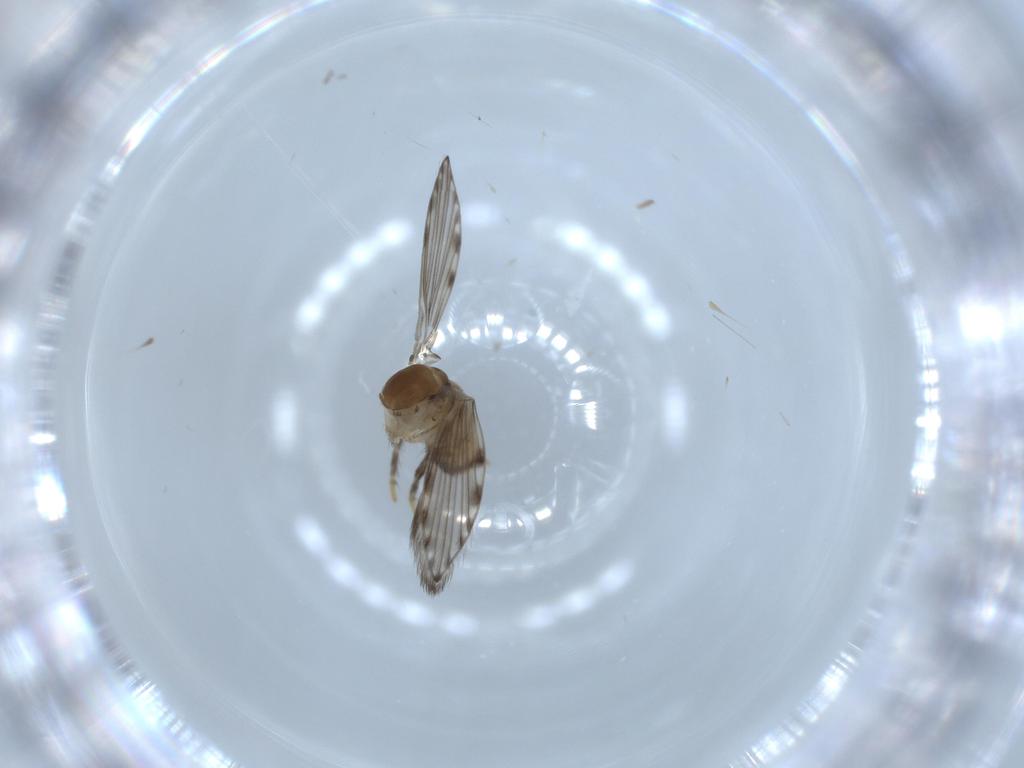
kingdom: Animalia
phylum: Arthropoda
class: Insecta
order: Diptera
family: Psychodidae
